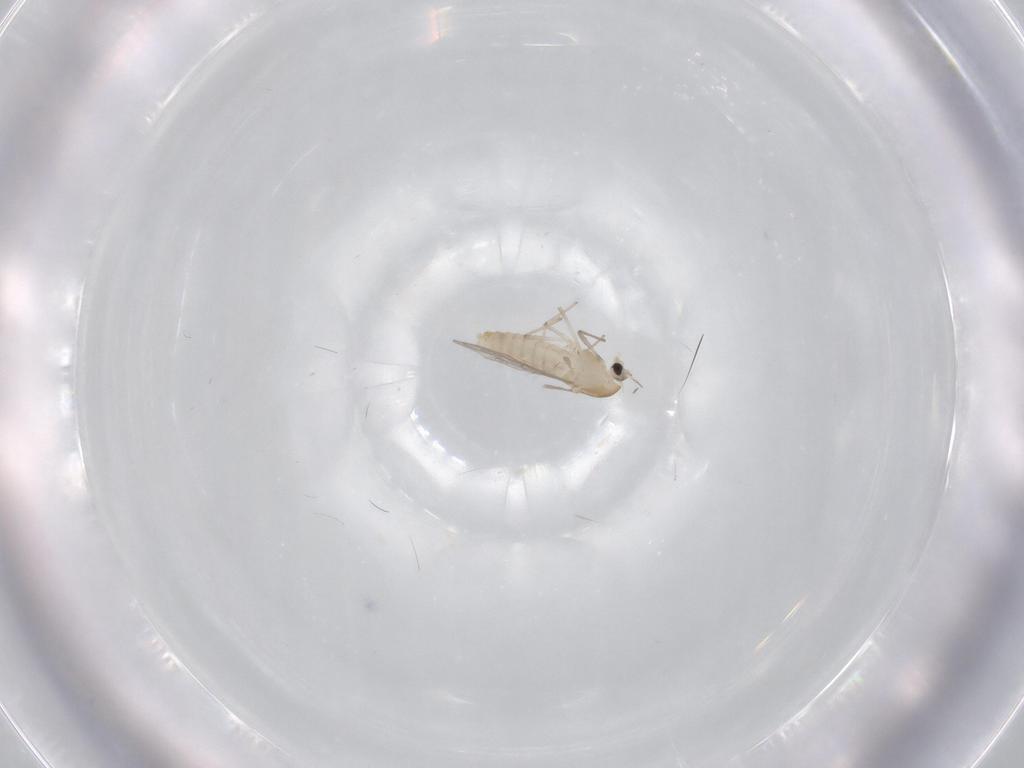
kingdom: Animalia
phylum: Arthropoda
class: Insecta
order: Diptera
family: Chironomidae
